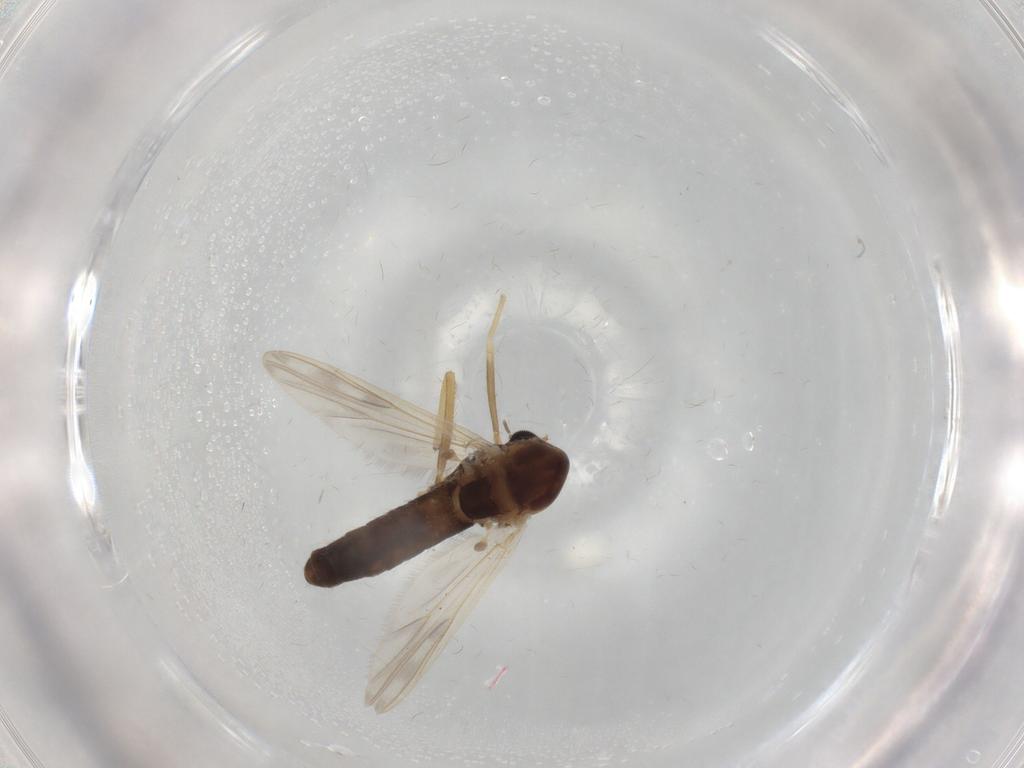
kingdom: Animalia
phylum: Arthropoda
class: Insecta
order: Diptera
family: Chironomidae
